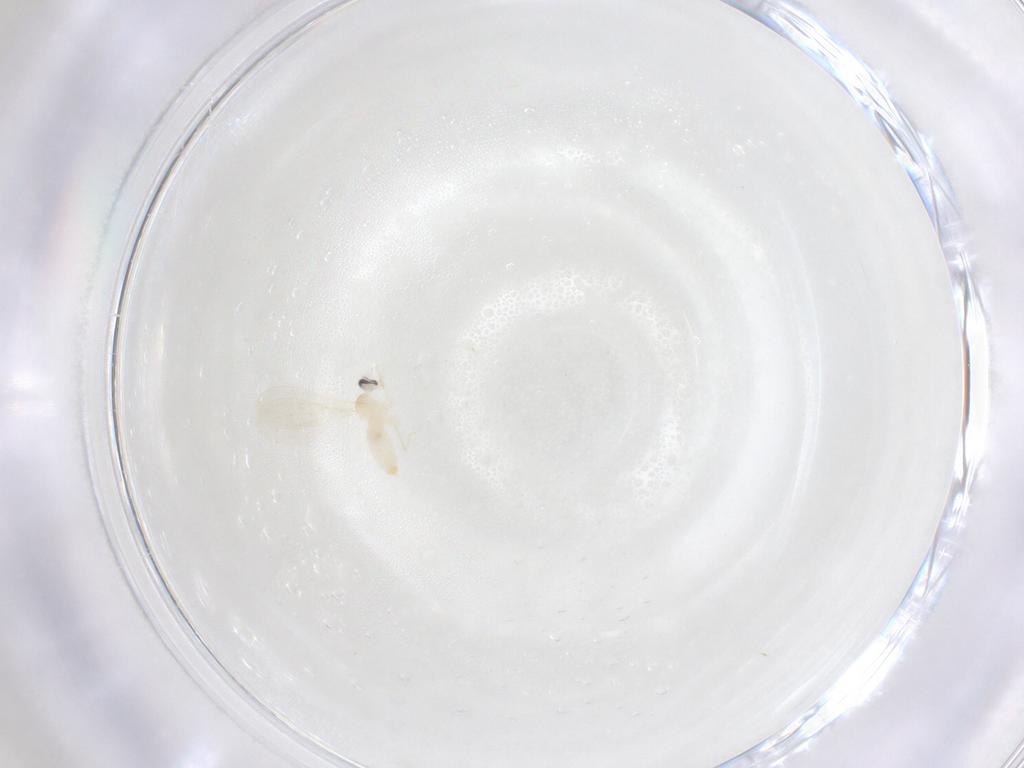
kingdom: Animalia
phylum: Arthropoda
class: Insecta
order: Diptera
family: Cecidomyiidae
